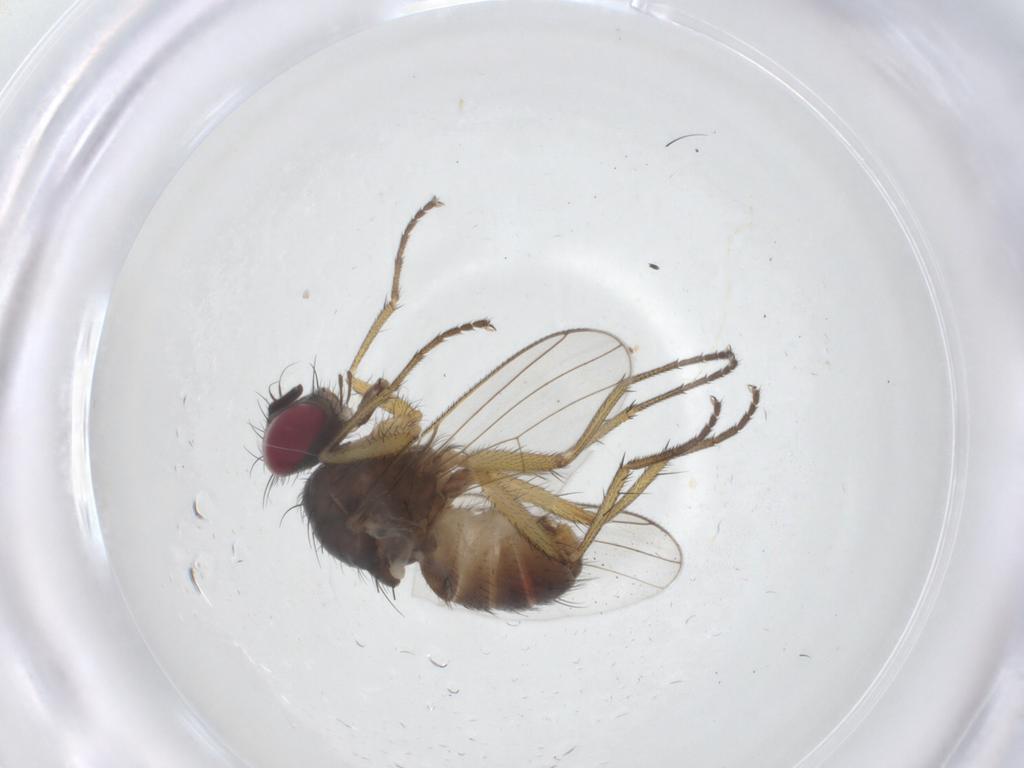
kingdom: Animalia
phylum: Arthropoda
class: Insecta
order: Diptera
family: Muscidae
